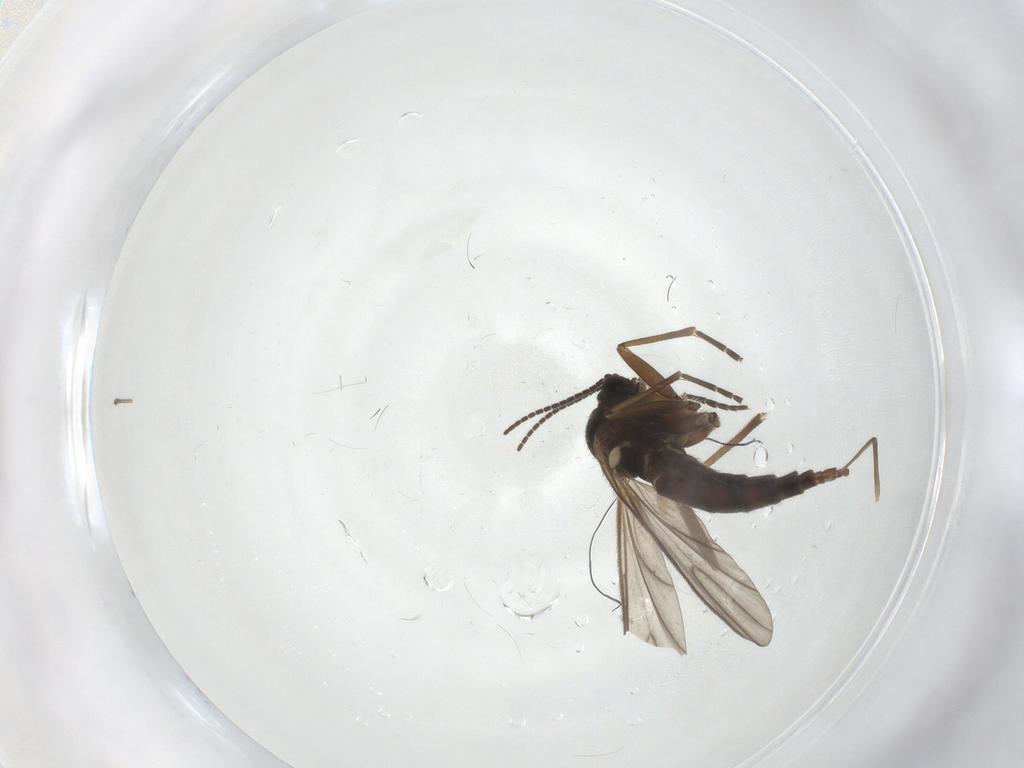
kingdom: Animalia
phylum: Arthropoda
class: Insecta
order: Diptera
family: Sciaridae
